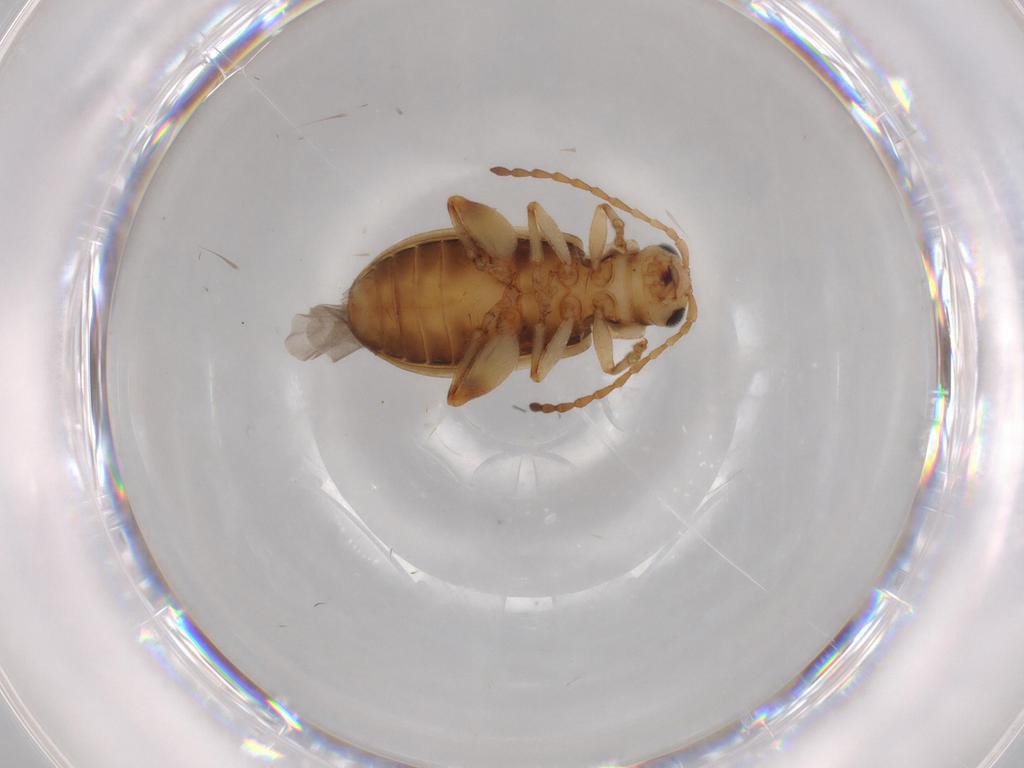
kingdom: Animalia
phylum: Arthropoda
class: Insecta
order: Coleoptera
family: Chrysomelidae
